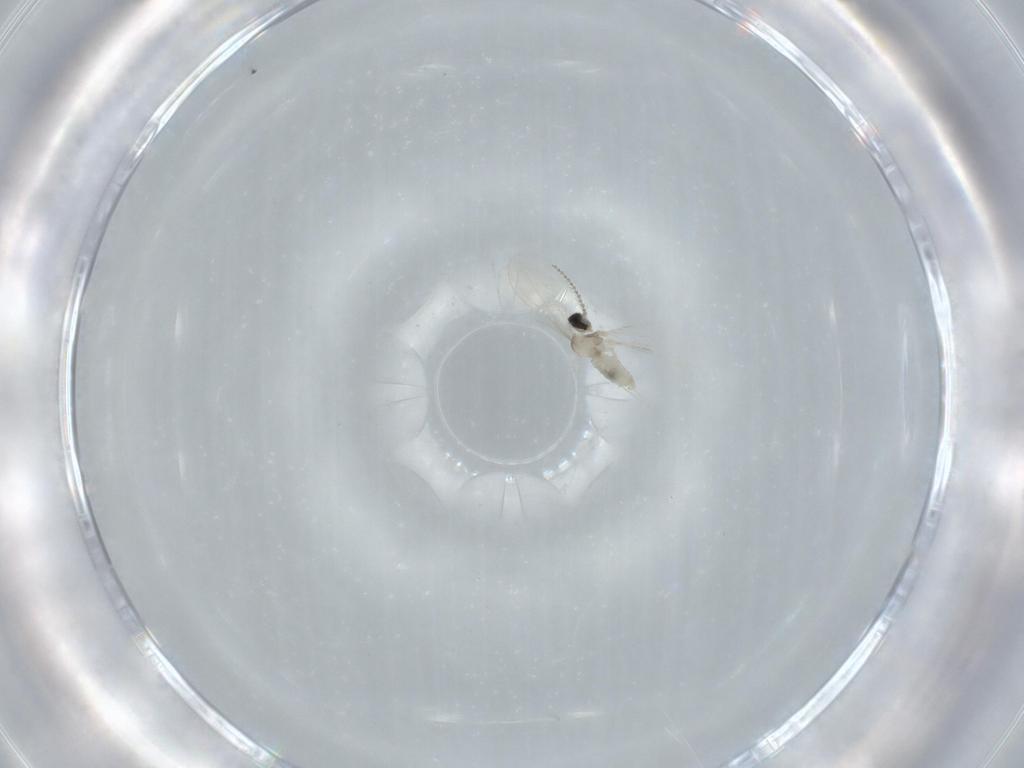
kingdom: Animalia
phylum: Arthropoda
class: Insecta
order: Diptera
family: Cecidomyiidae
